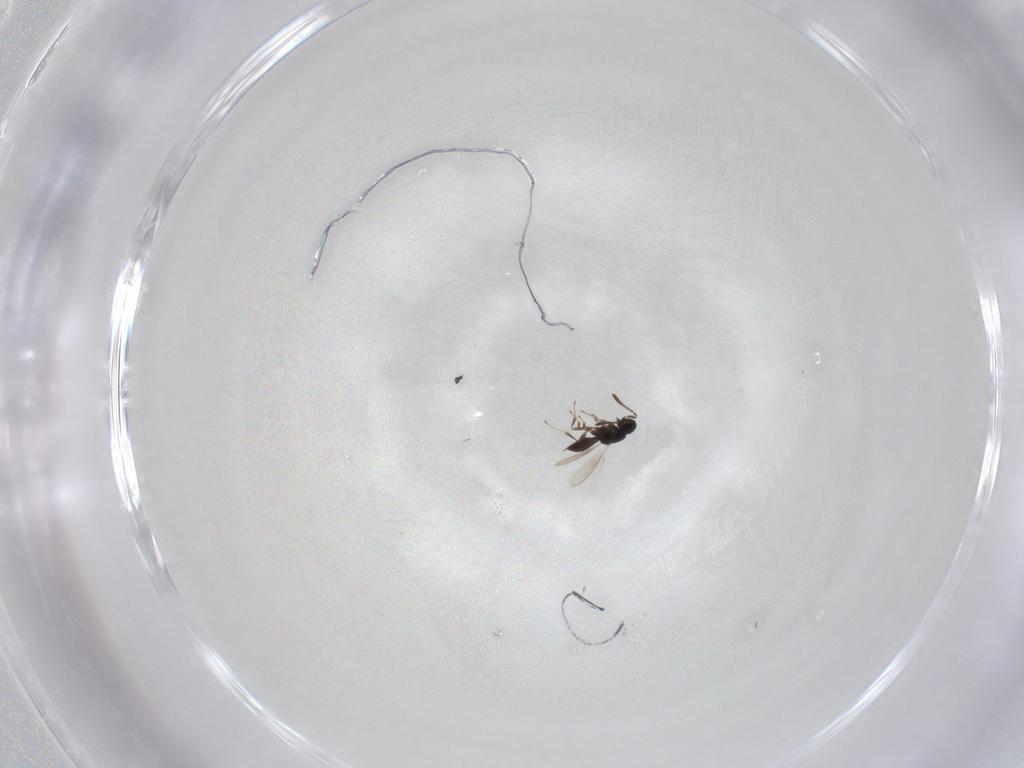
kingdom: Animalia
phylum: Arthropoda
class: Insecta
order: Hymenoptera
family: Scelionidae
